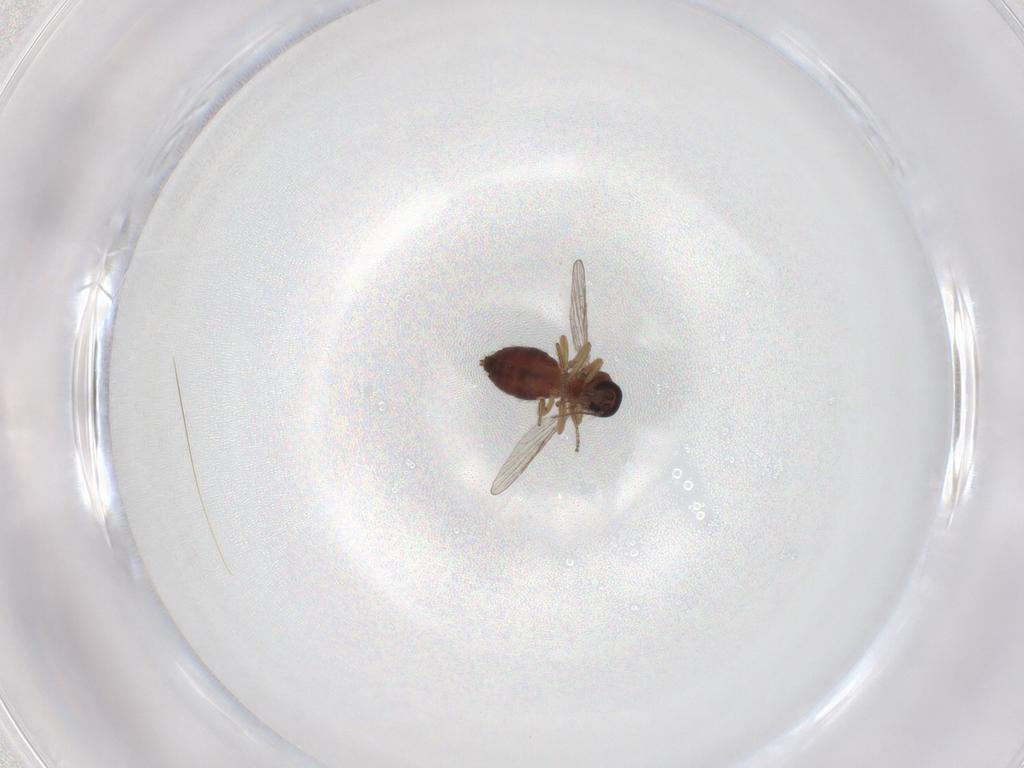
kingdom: Animalia
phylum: Arthropoda
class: Insecta
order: Diptera
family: Ceratopogonidae
